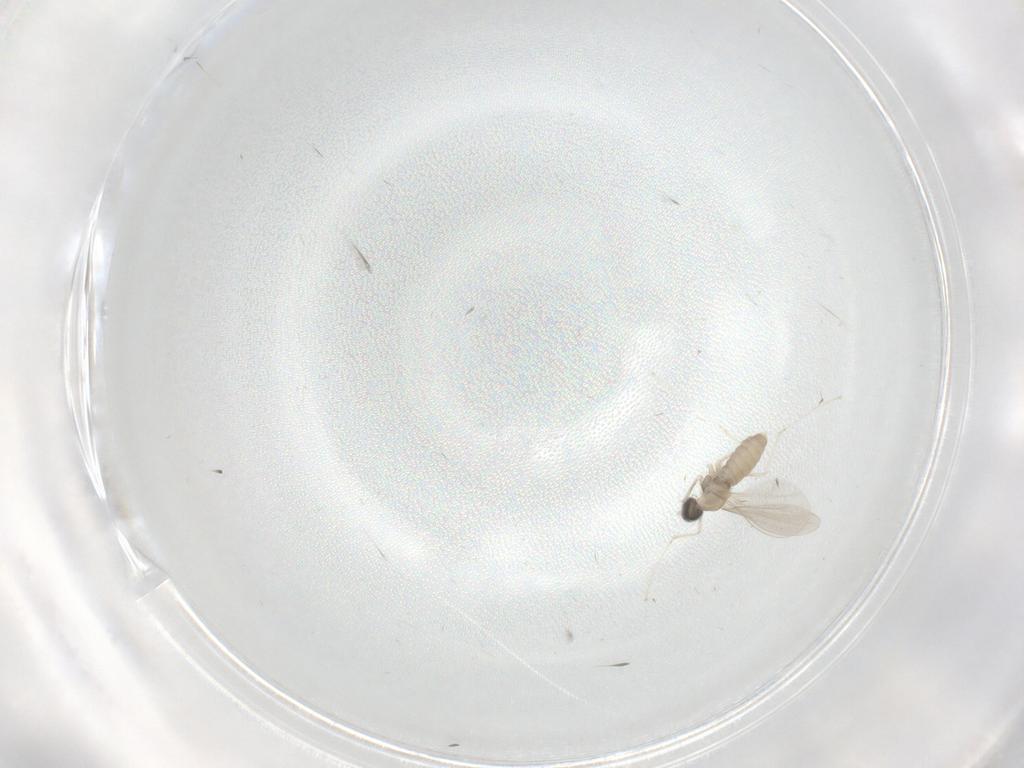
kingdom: Animalia
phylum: Arthropoda
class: Insecta
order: Diptera
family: Cecidomyiidae
